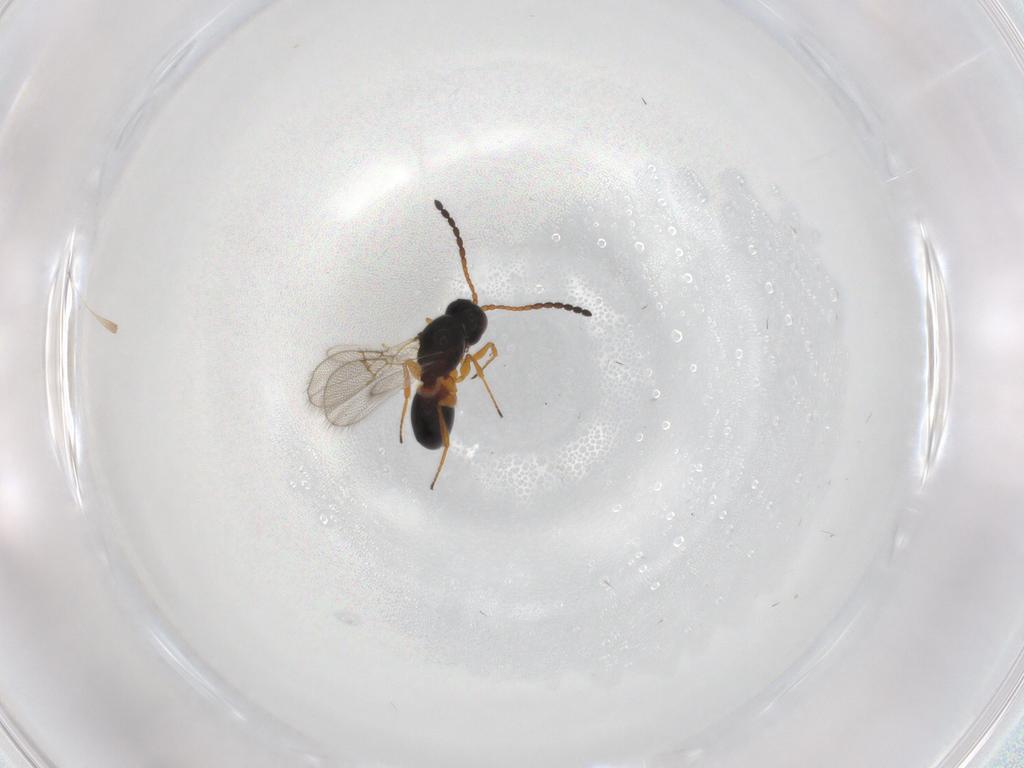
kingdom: Animalia
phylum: Arthropoda
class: Insecta
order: Hymenoptera
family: Figitidae
